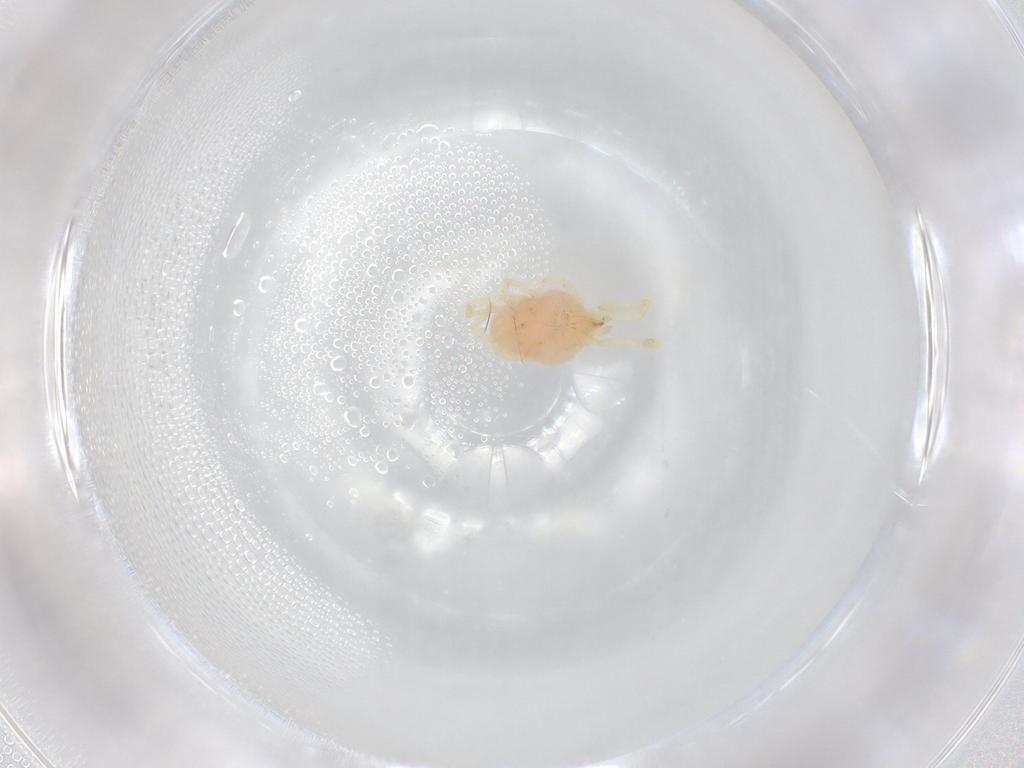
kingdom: Animalia
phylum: Arthropoda
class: Arachnida
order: Trombidiformes
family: Erythraeidae
